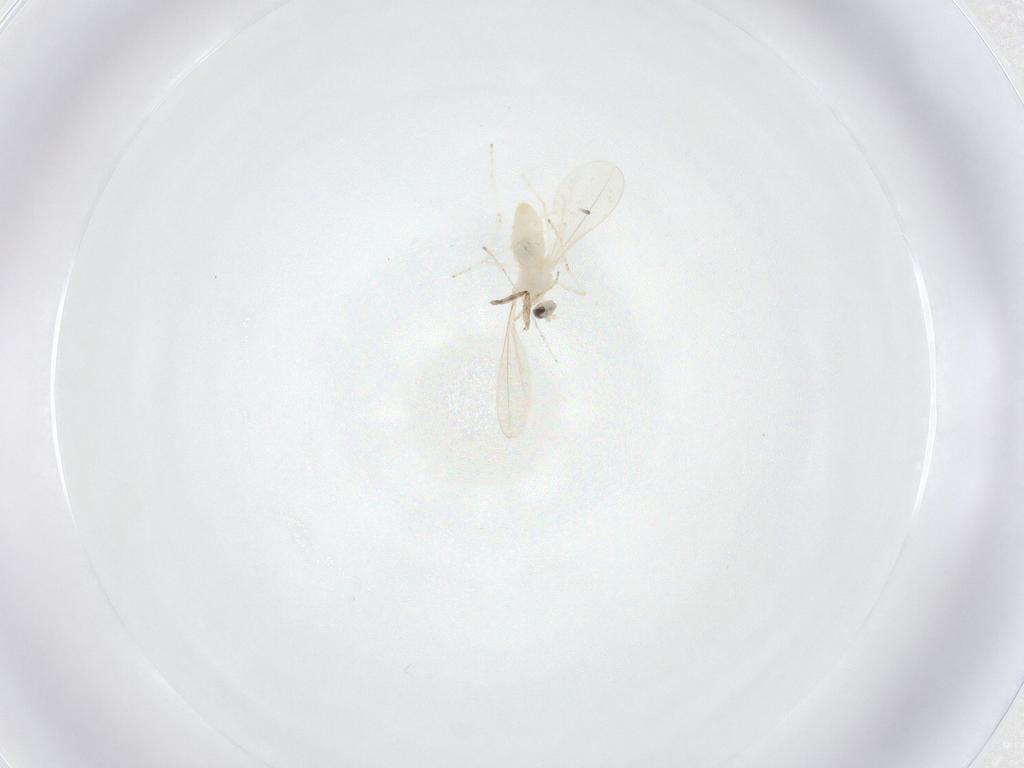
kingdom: Animalia
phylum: Arthropoda
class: Insecta
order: Diptera
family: Cecidomyiidae
